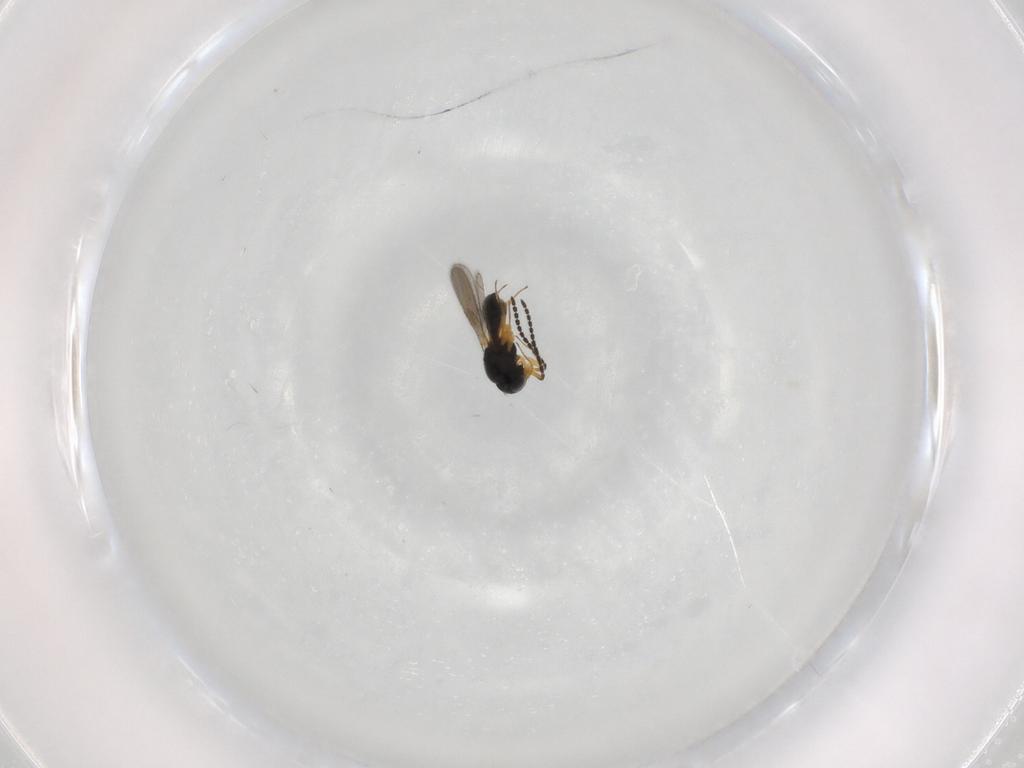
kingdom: Animalia
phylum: Arthropoda
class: Insecta
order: Hymenoptera
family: Scelionidae
